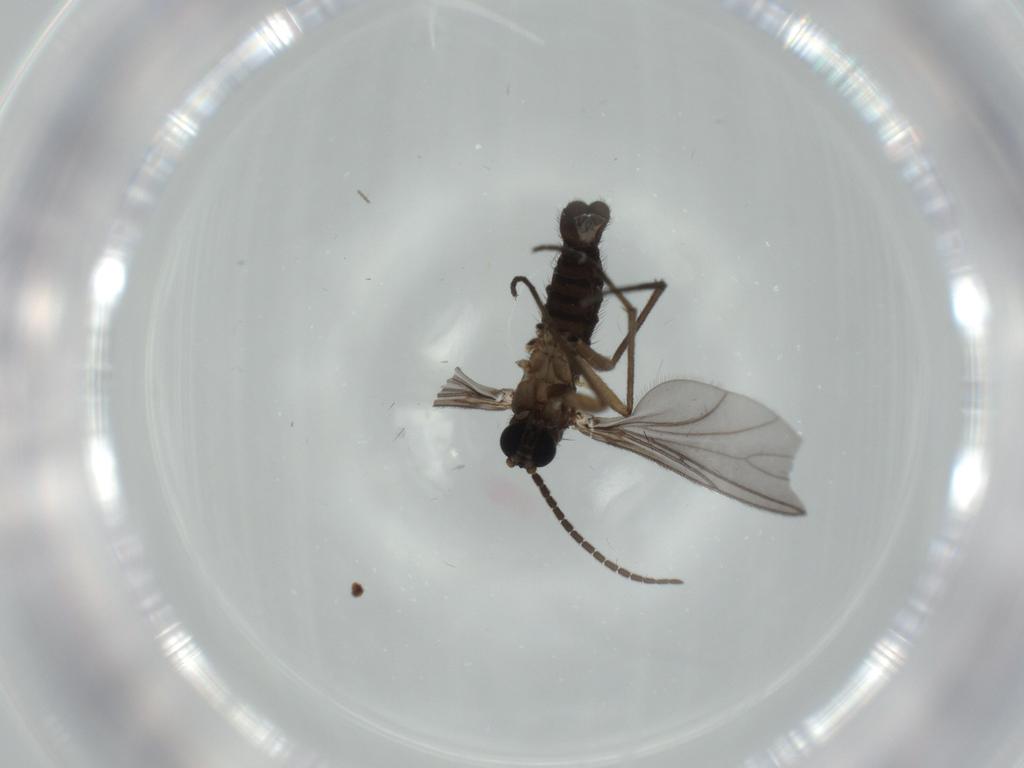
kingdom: Animalia
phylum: Arthropoda
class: Insecta
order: Diptera
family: Sciaridae
